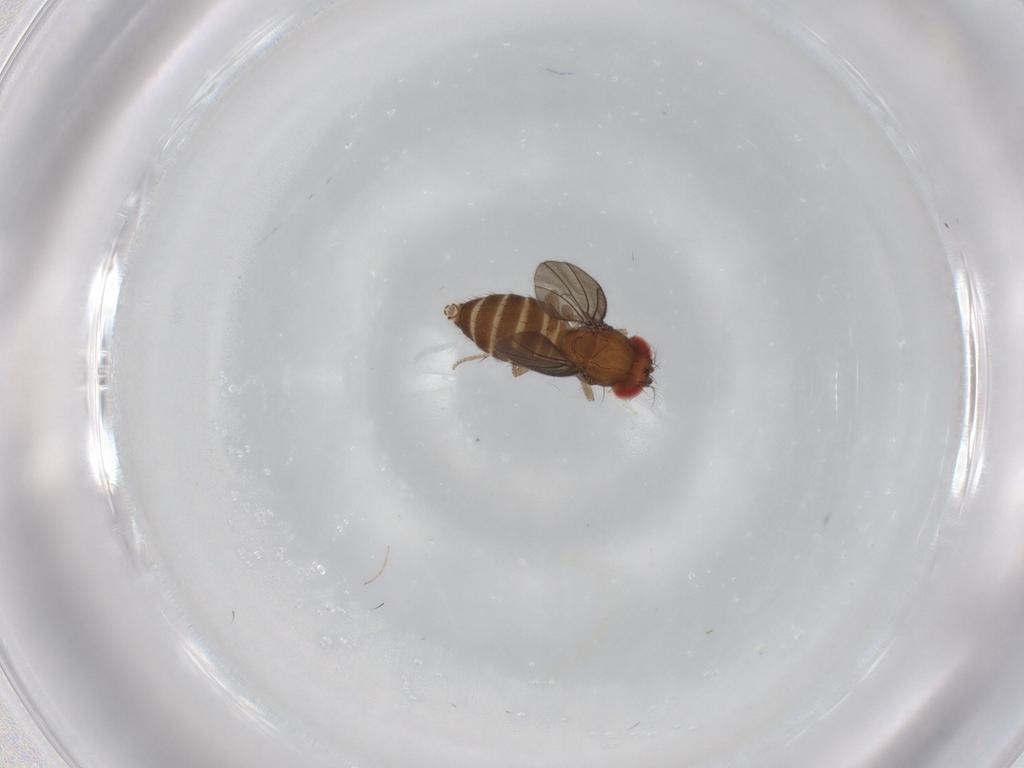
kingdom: Animalia
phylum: Arthropoda
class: Insecta
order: Diptera
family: Drosophilidae
